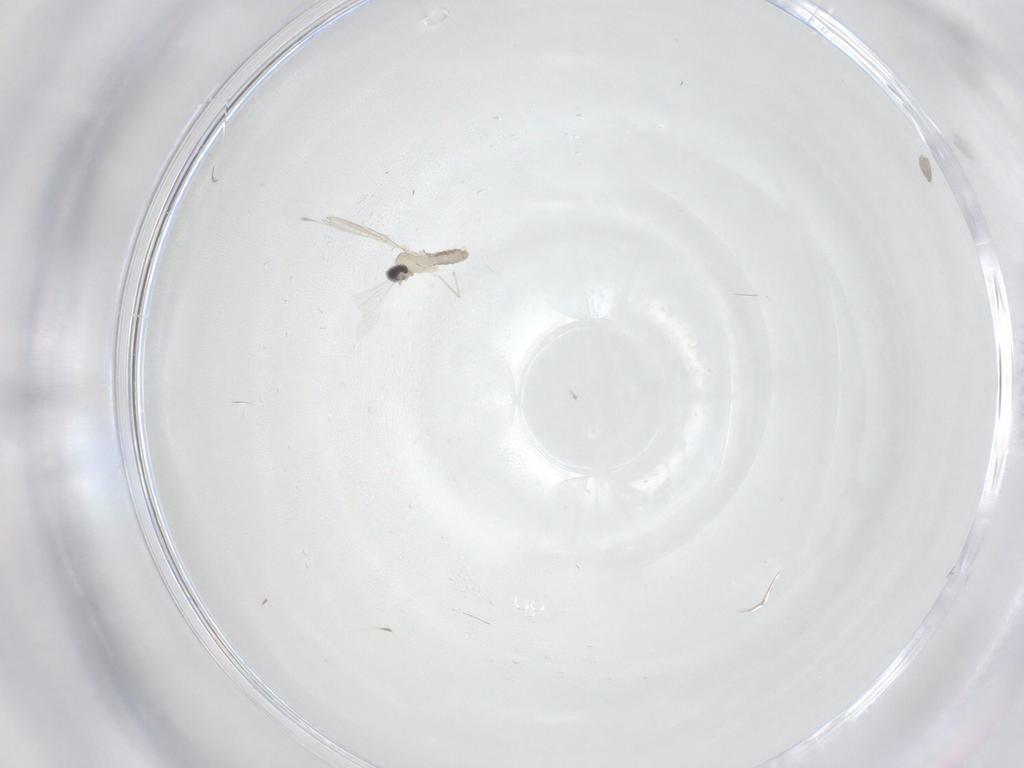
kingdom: Animalia
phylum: Arthropoda
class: Insecta
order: Diptera
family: Cecidomyiidae
